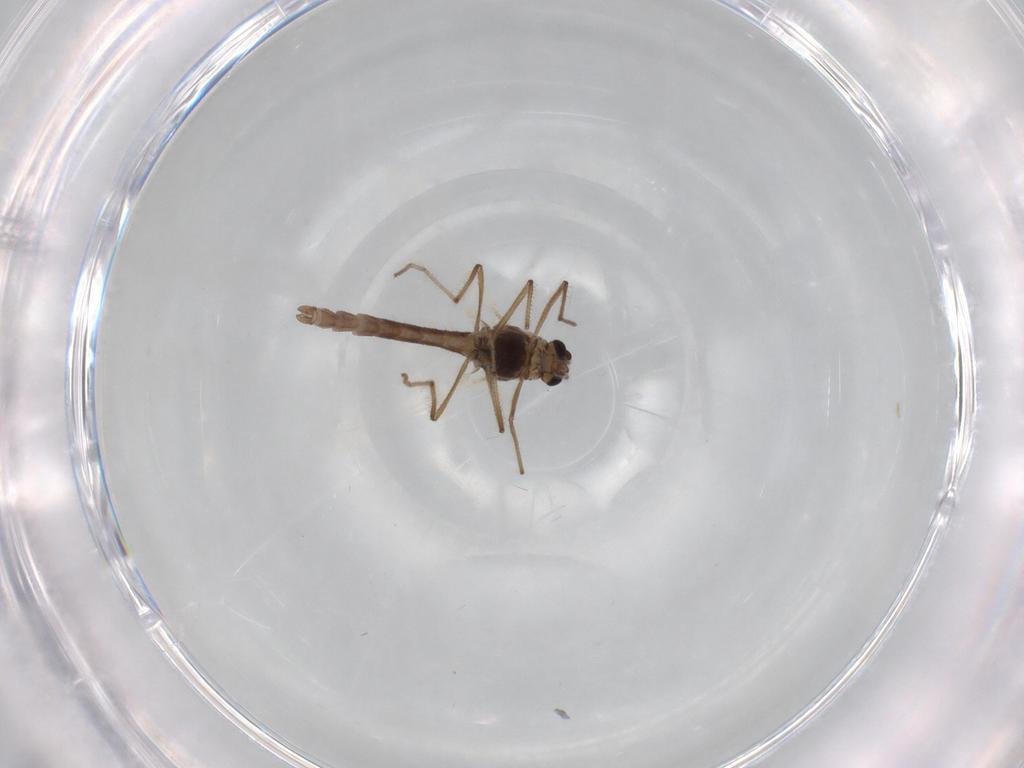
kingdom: Animalia
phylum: Arthropoda
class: Insecta
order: Diptera
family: Chironomidae
